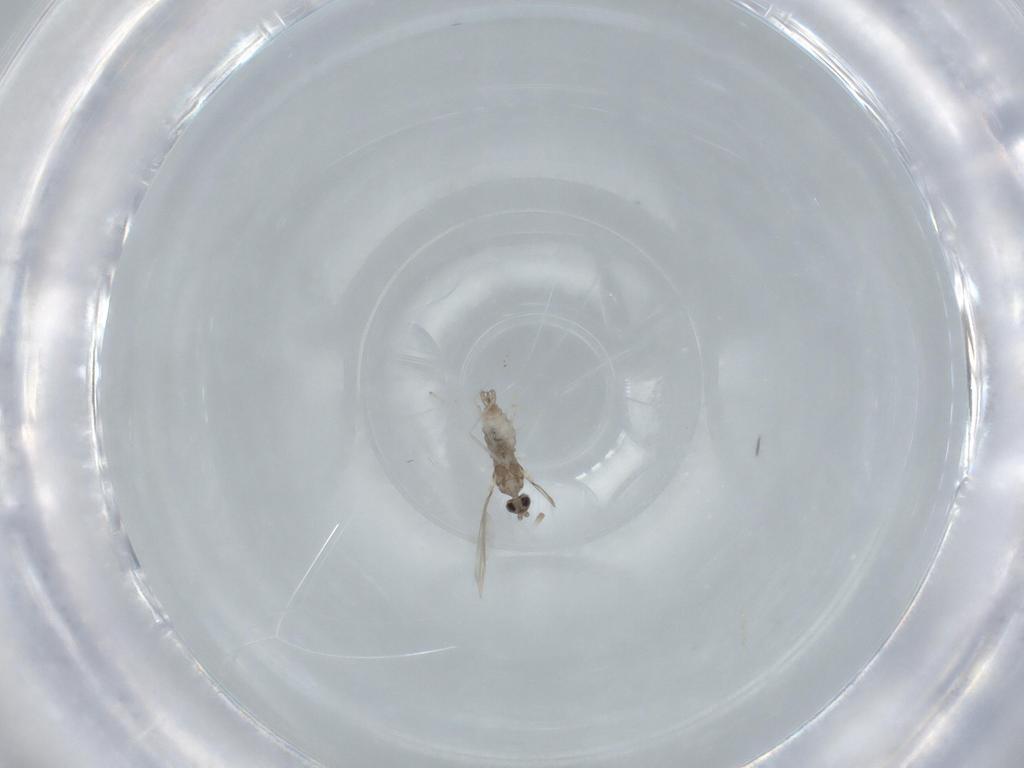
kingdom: Animalia
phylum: Arthropoda
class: Insecta
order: Diptera
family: Cecidomyiidae
